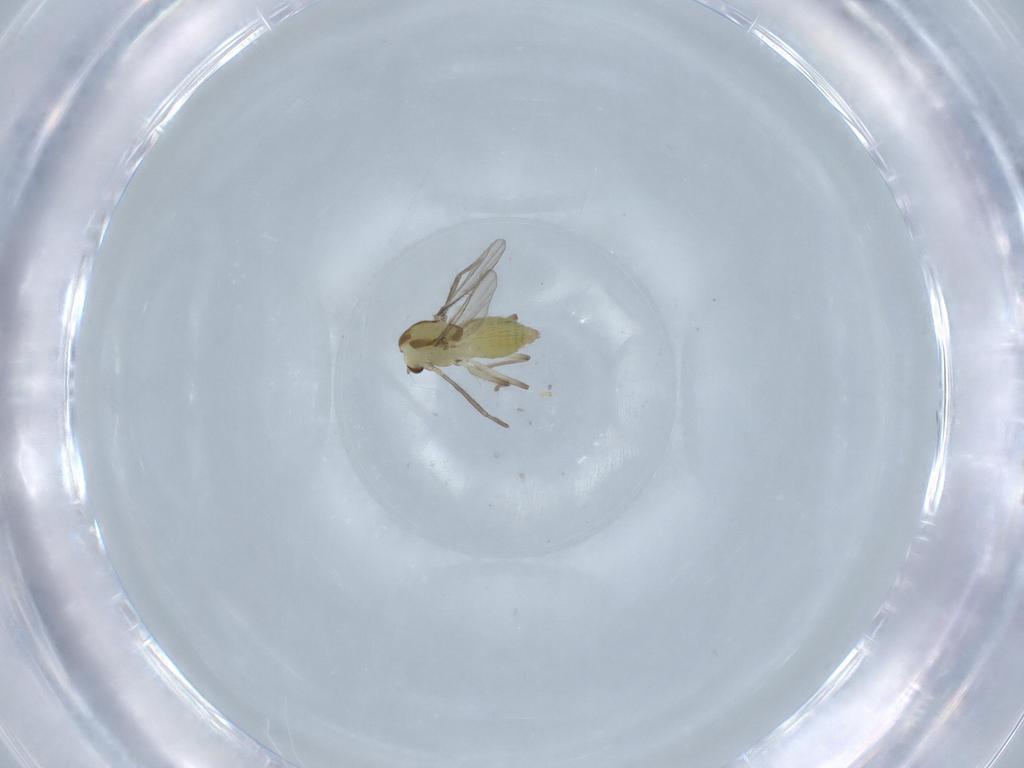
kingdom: Animalia
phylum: Arthropoda
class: Insecta
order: Diptera
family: Chironomidae
